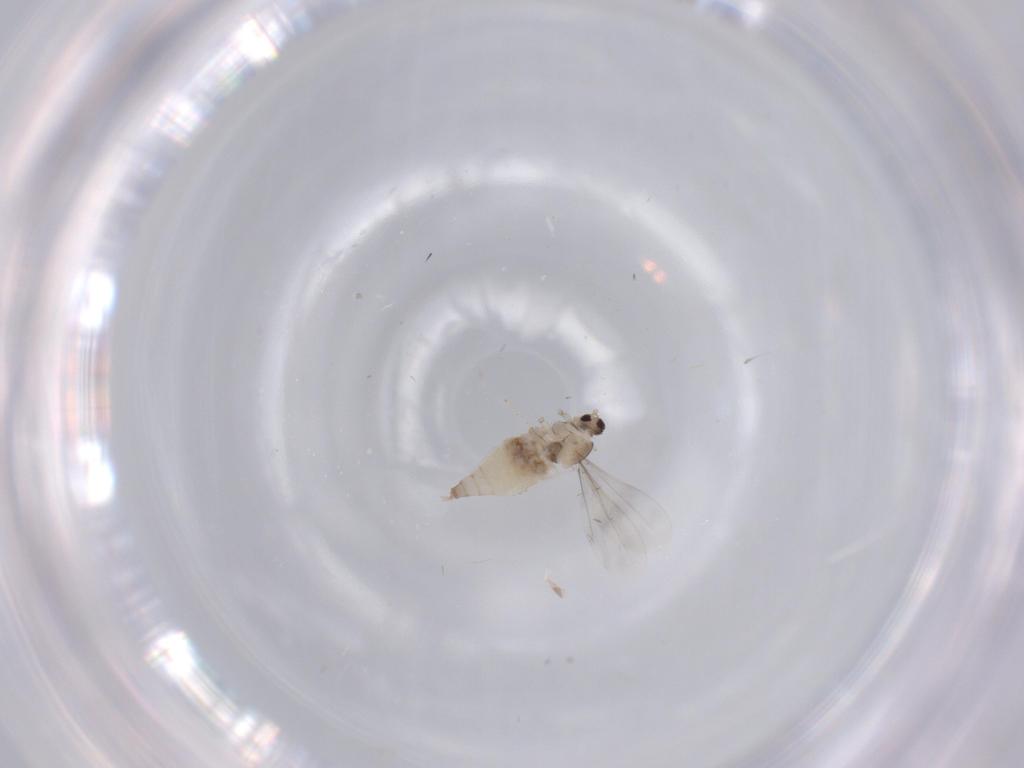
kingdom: Animalia
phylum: Arthropoda
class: Insecta
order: Diptera
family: Cecidomyiidae
